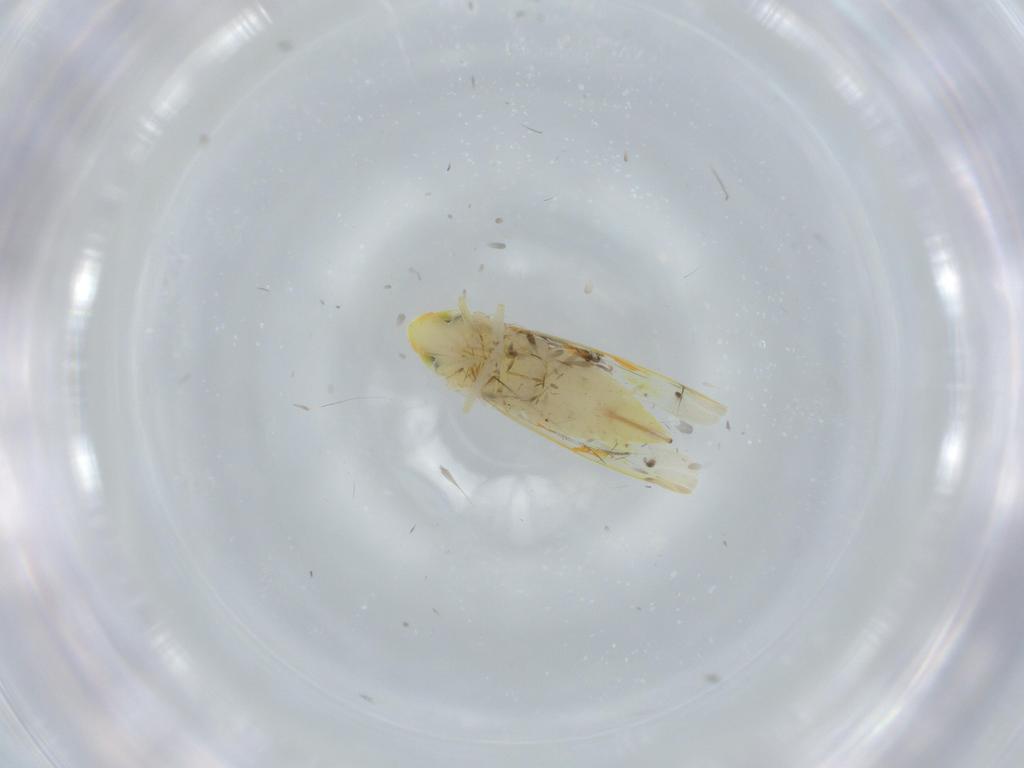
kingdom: Animalia
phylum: Arthropoda
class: Insecta
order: Hemiptera
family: Cicadellidae
